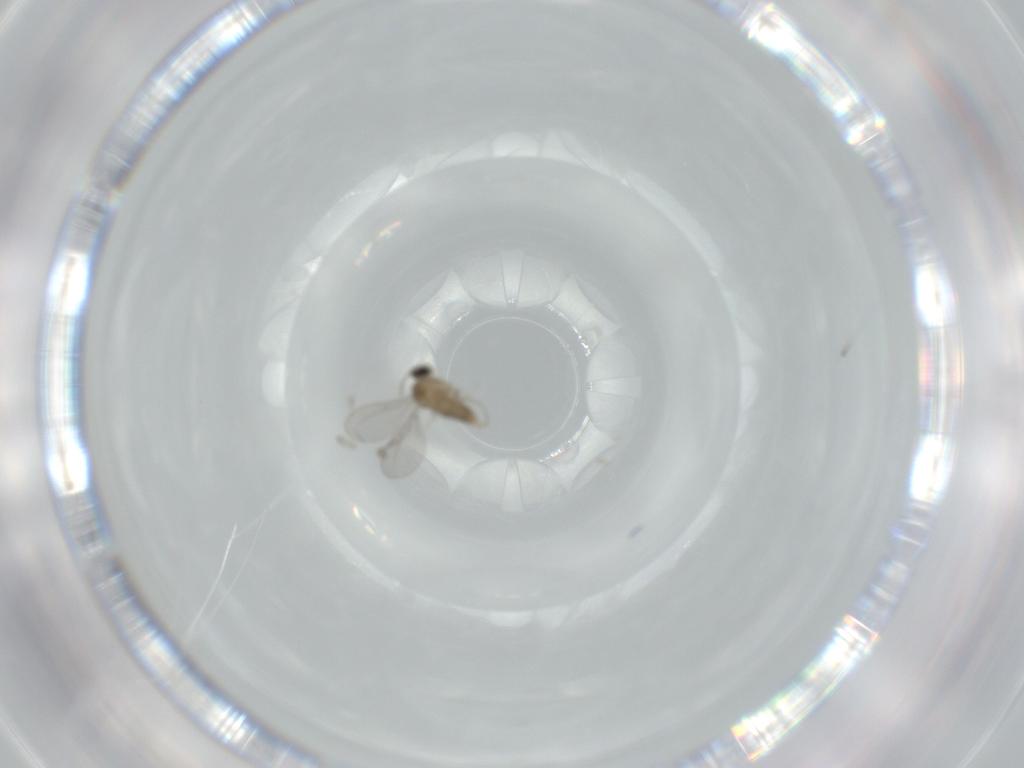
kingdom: Animalia
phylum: Arthropoda
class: Insecta
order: Diptera
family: Cecidomyiidae
